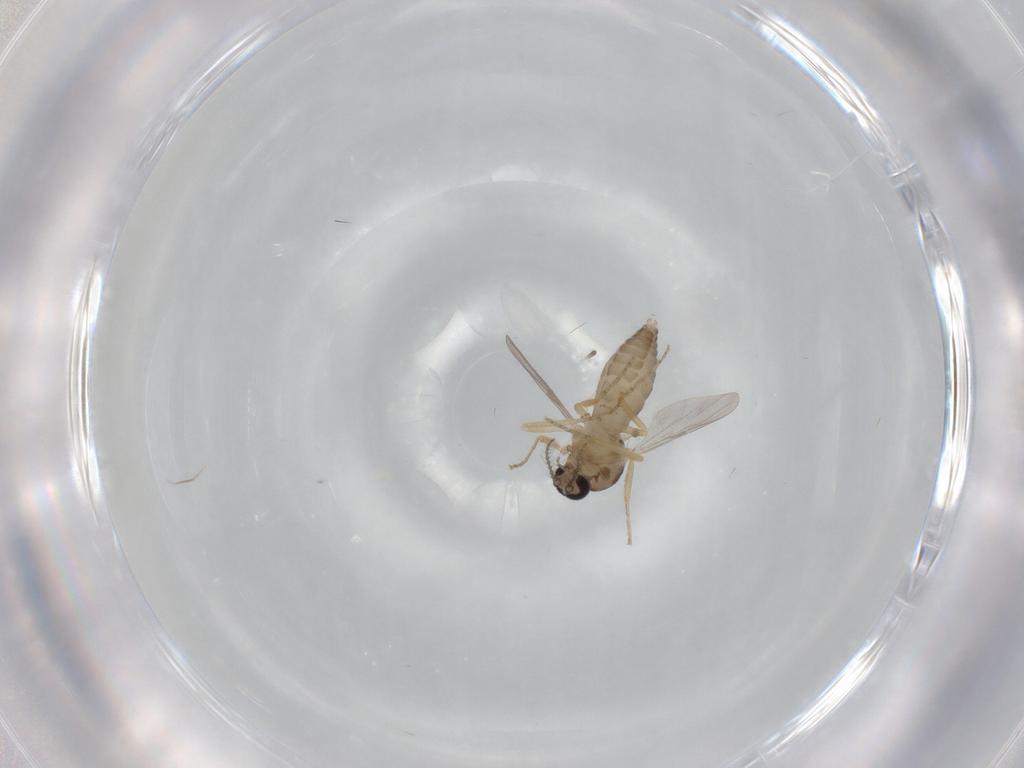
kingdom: Animalia
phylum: Arthropoda
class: Insecta
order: Diptera
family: Ceratopogonidae
